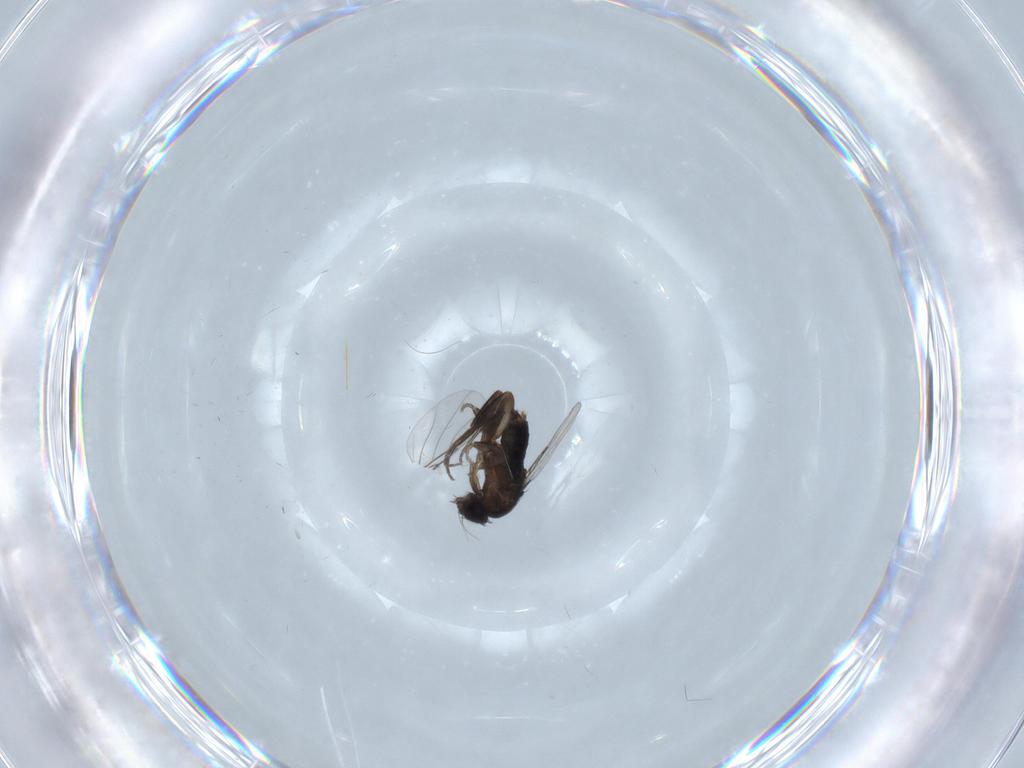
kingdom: Animalia
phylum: Arthropoda
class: Insecta
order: Diptera
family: Phoridae
